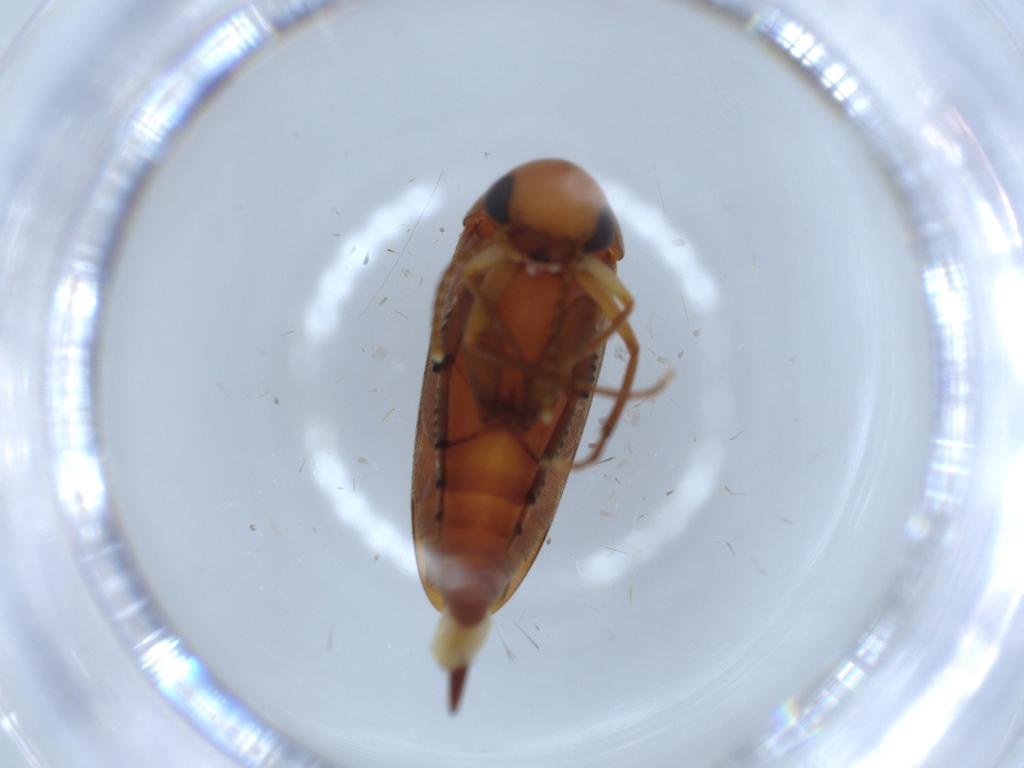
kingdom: Animalia
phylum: Arthropoda
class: Insecta
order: Coleoptera
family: Mordellidae
